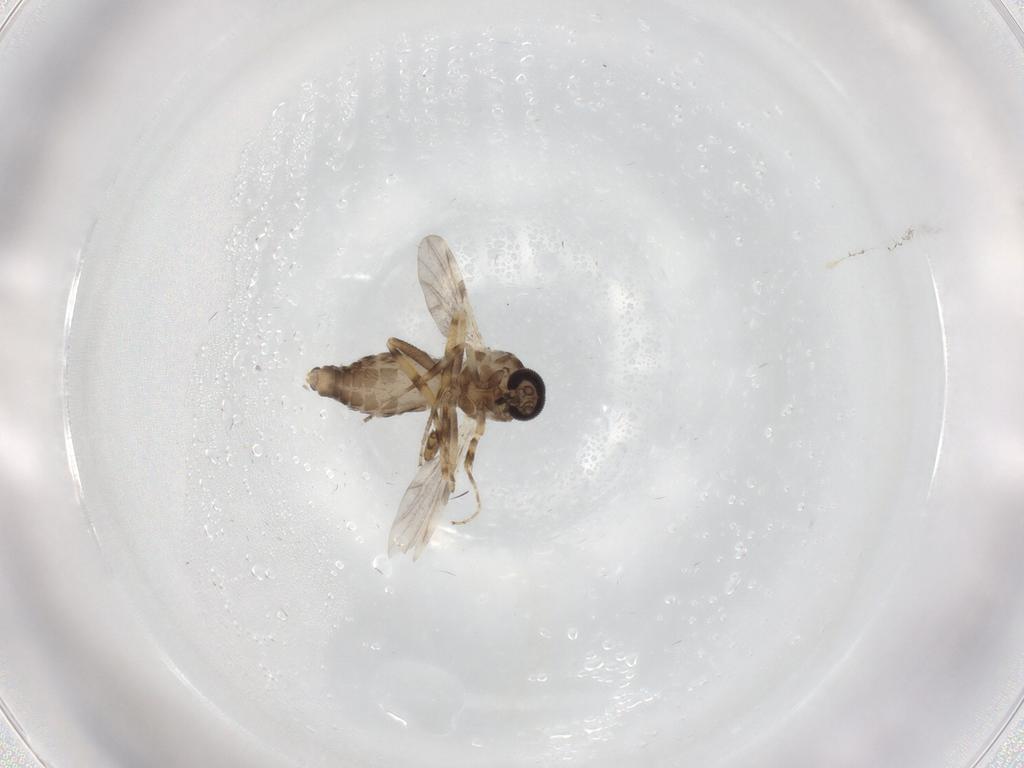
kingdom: Animalia
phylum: Arthropoda
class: Insecta
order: Diptera
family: Ceratopogonidae
